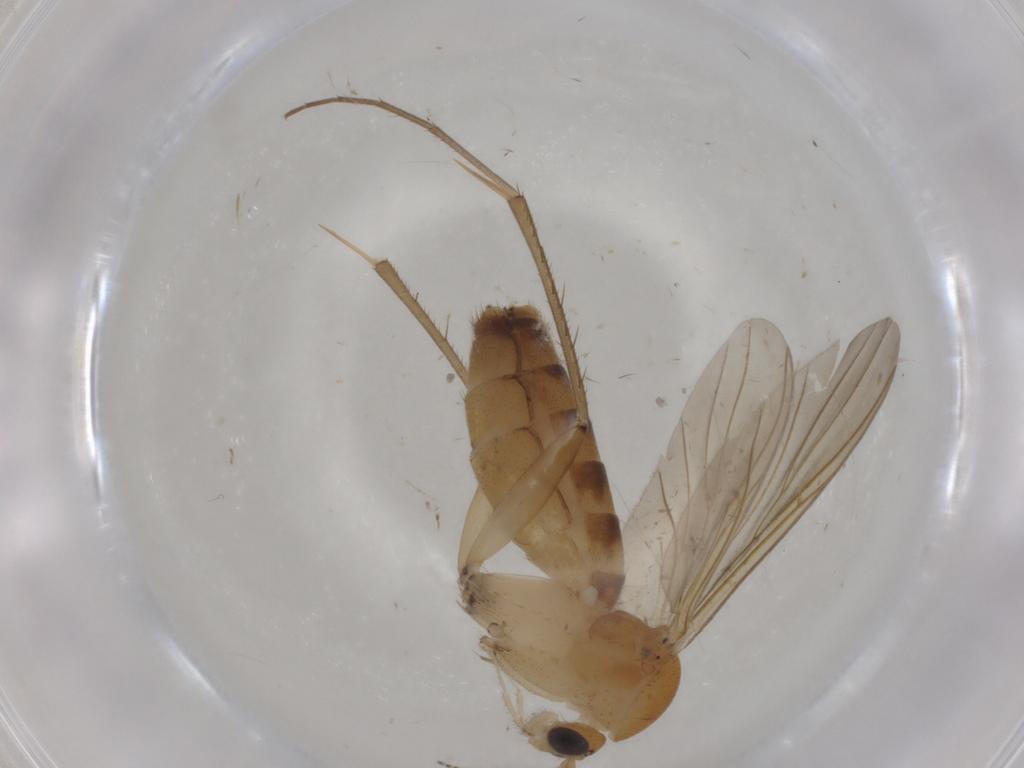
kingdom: Animalia
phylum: Arthropoda
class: Insecta
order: Diptera
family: Mycetophilidae
